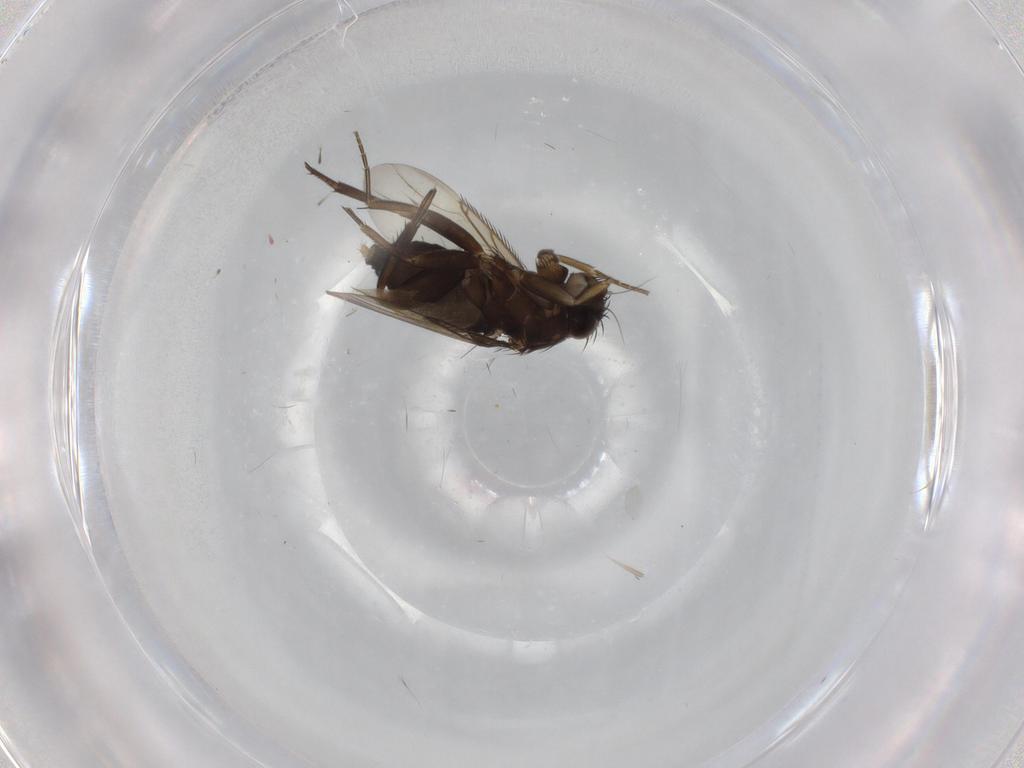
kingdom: Animalia
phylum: Arthropoda
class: Insecta
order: Diptera
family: Phoridae
